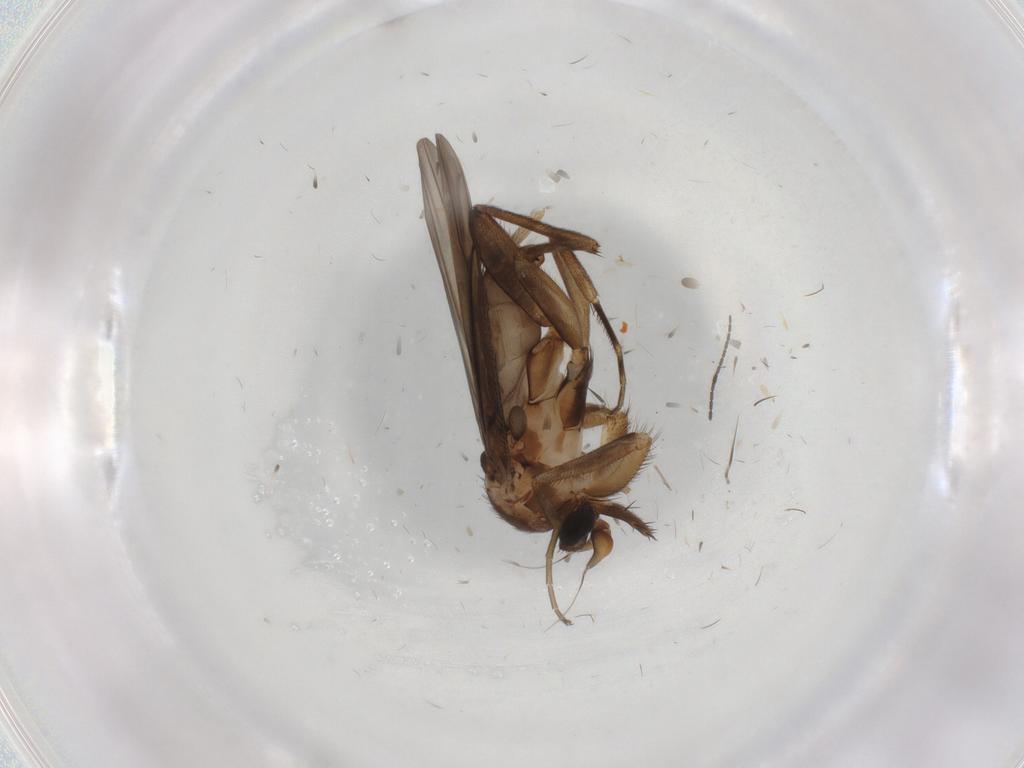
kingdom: Animalia
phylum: Arthropoda
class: Insecta
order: Diptera
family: Phoridae
